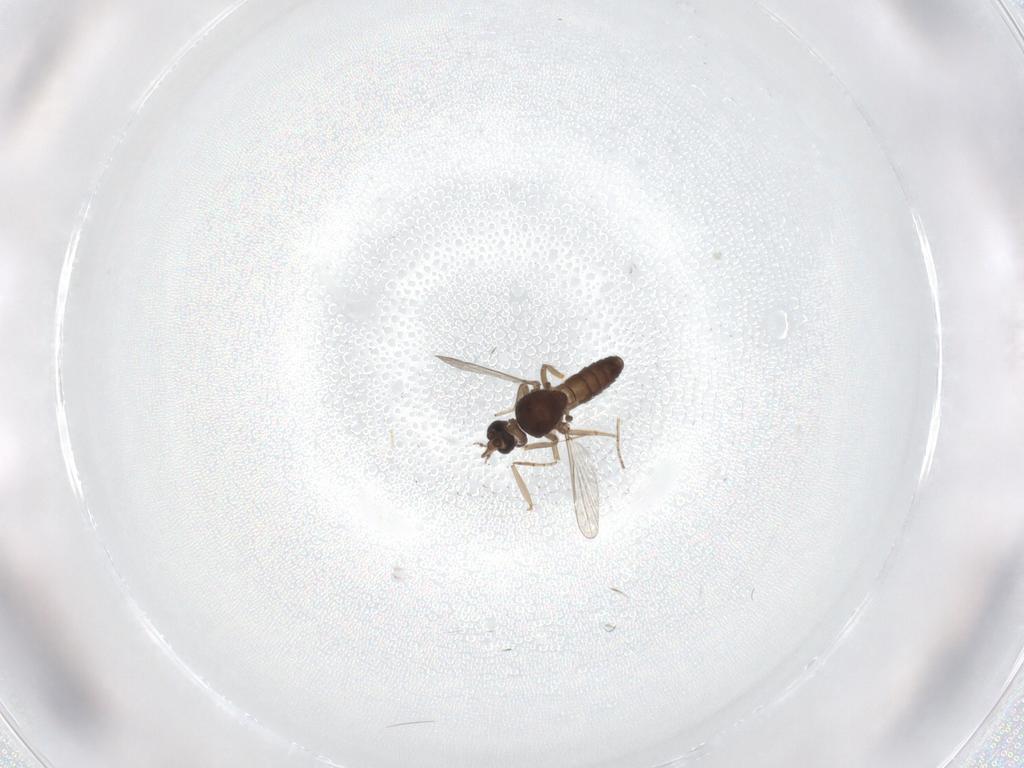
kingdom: Animalia
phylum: Arthropoda
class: Insecta
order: Diptera
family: Ceratopogonidae
